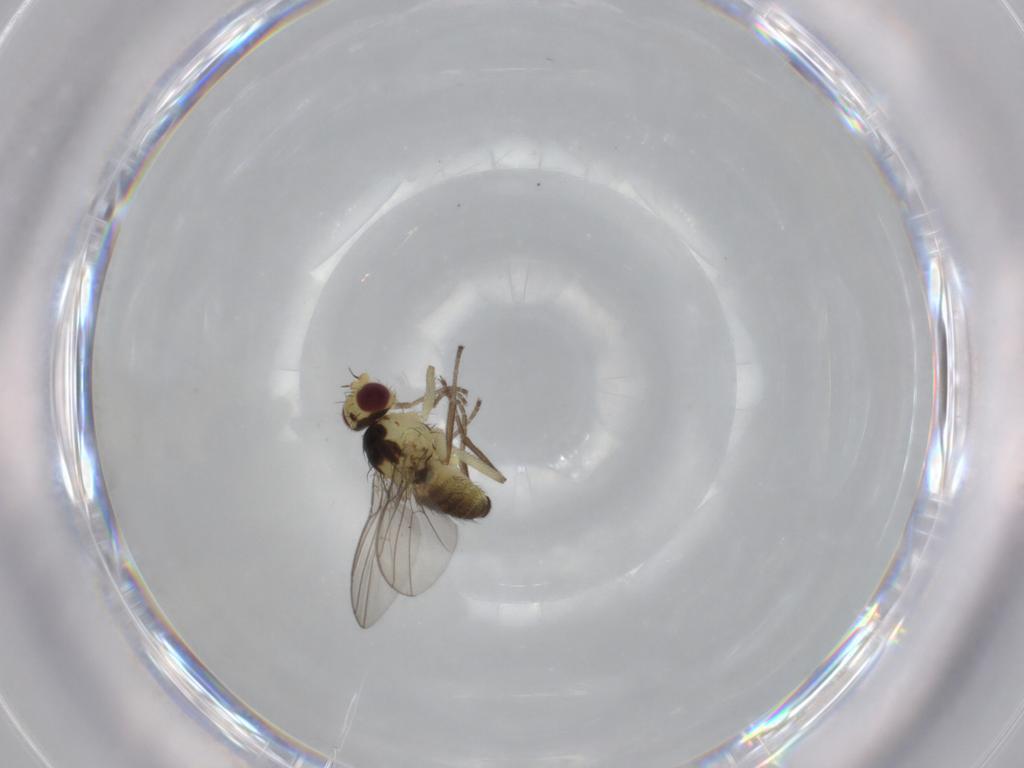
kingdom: Animalia
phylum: Arthropoda
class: Insecta
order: Diptera
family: Agromyzidae
